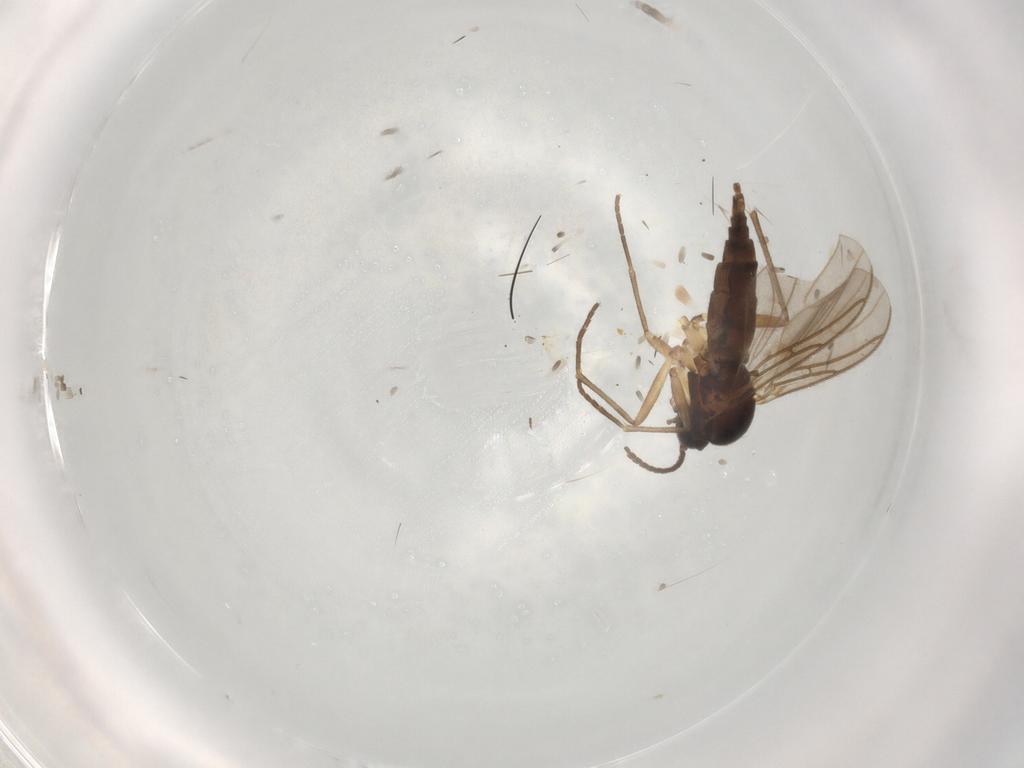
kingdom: Animalia
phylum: Arthropoda
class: Insecta
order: Diptera
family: Sciaridae
